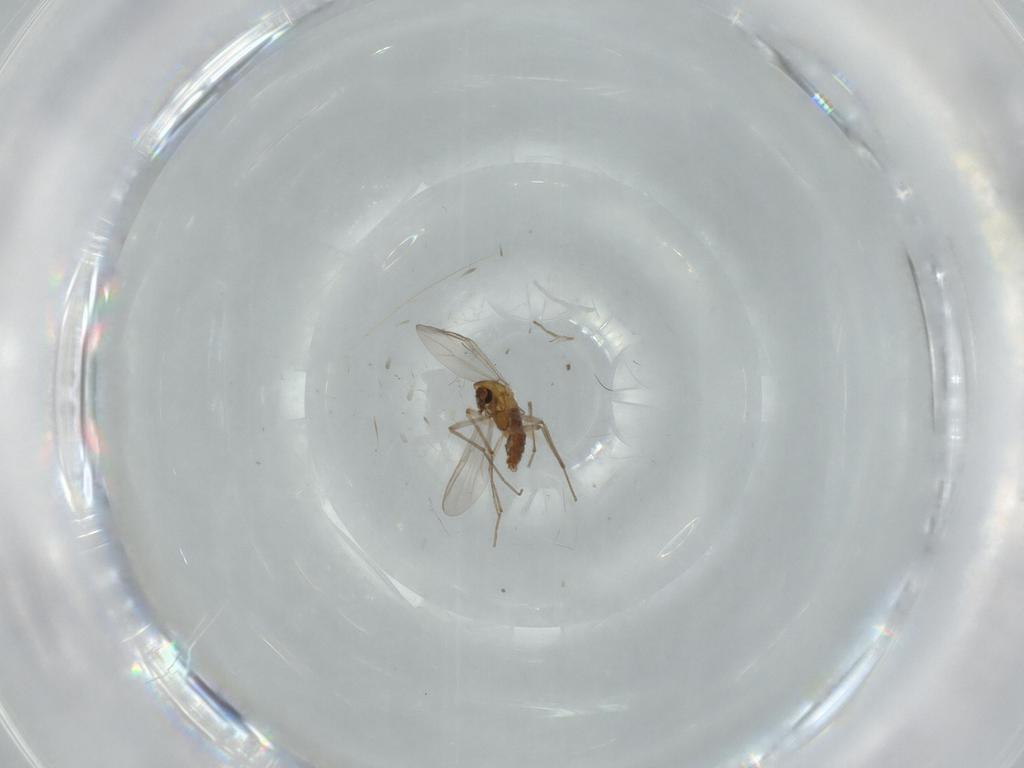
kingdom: Animalia
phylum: Arthropoda
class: Insecta
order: Diptera
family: Chironomidae
